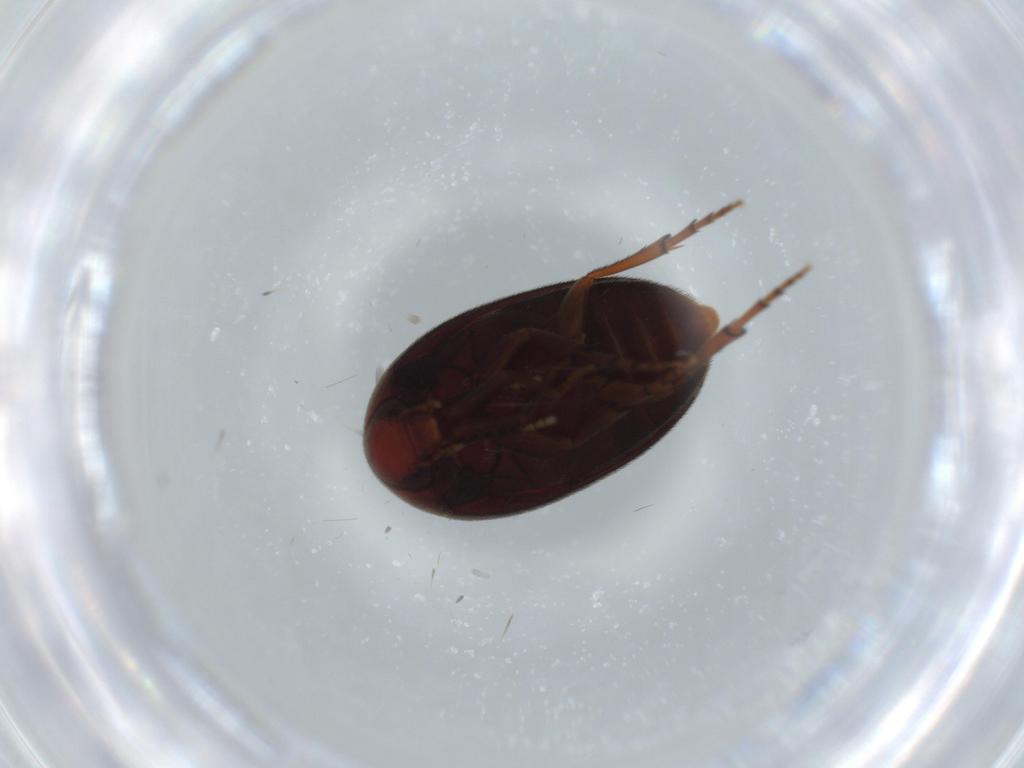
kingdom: Animalia
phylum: Arthropoda
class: Insecta
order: Coleoptera
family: Eucinetidae
